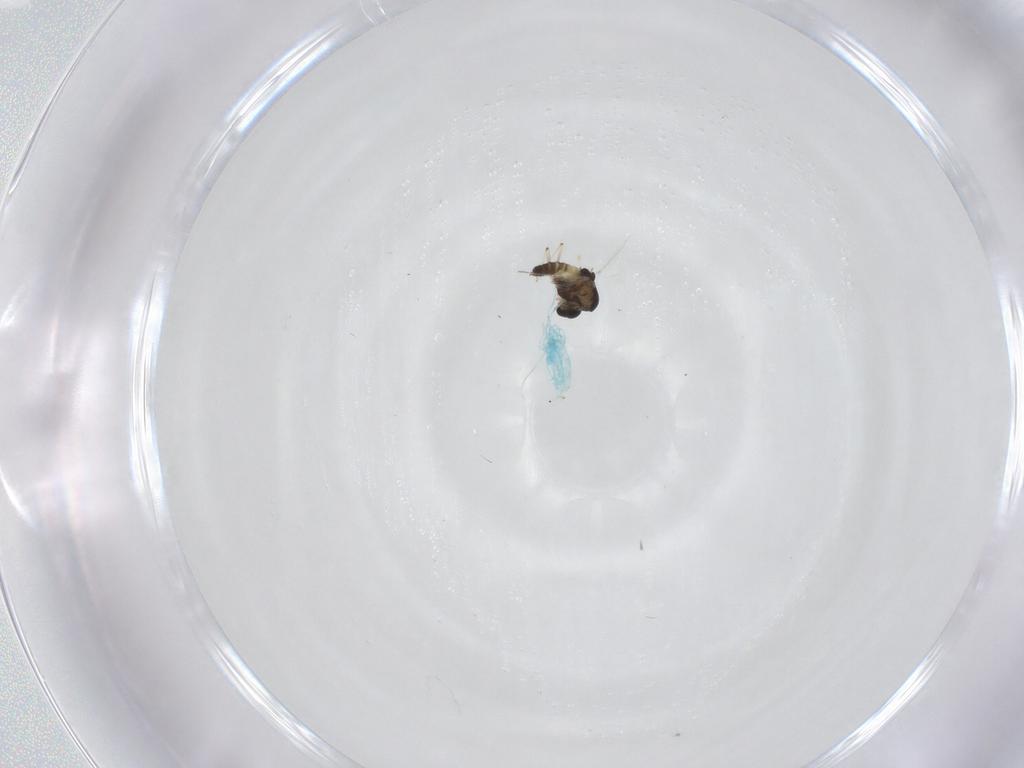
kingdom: Animalia
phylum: Arthropoda
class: Insecta
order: Diptera
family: Chironomidae
